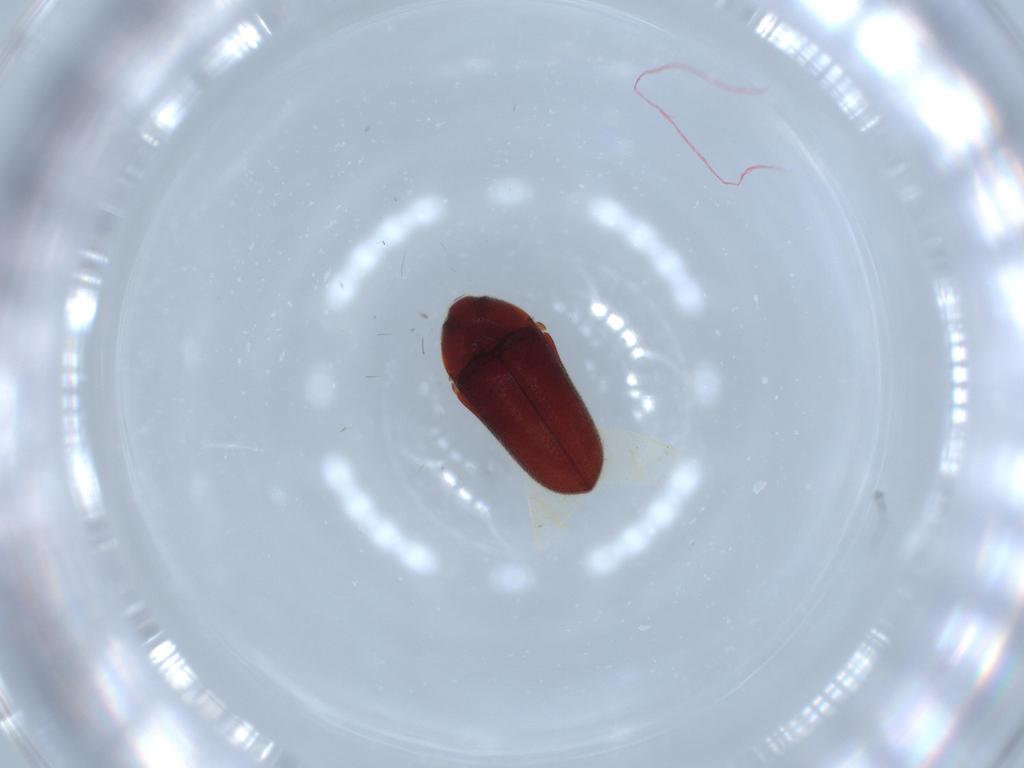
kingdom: Animalia
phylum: Arthropoda
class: Insecta
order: Coleoptera
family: Throscidae
